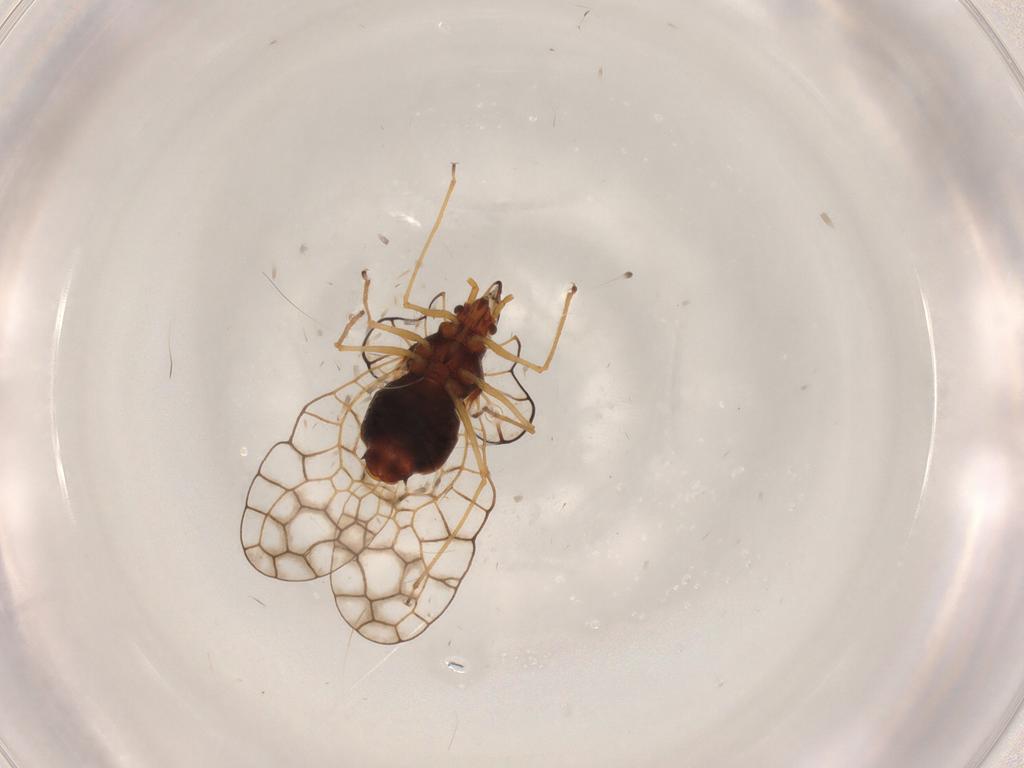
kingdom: Animalia
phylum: Arthropoda
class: Insecta
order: Hemiptera
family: Tingidae
